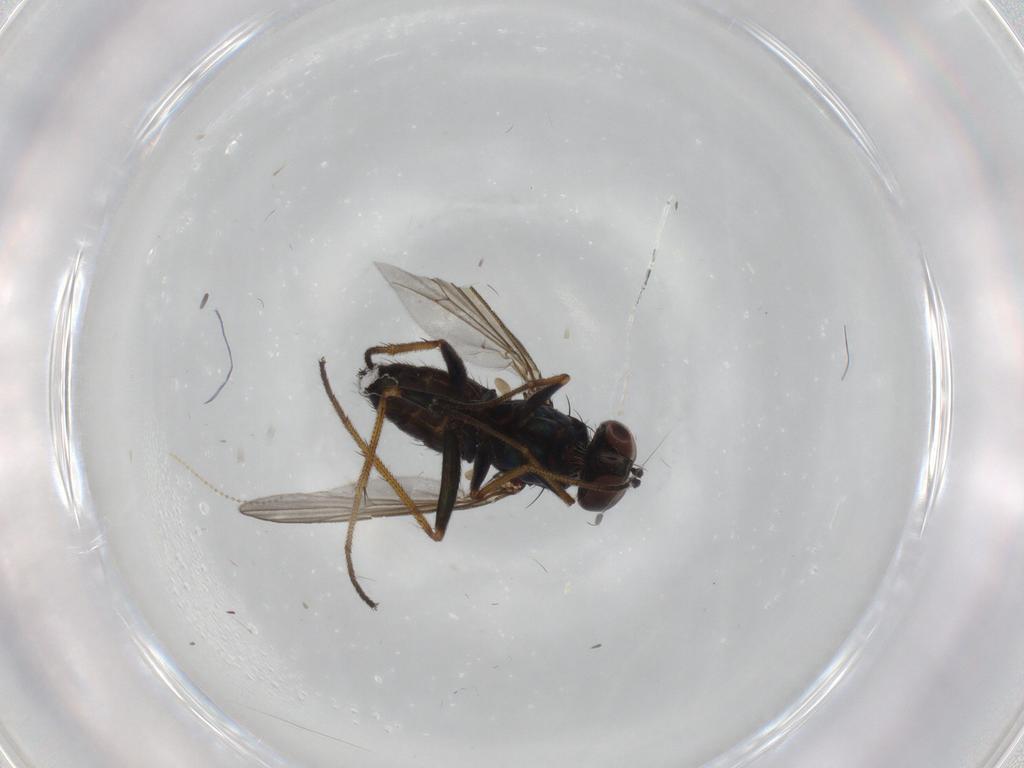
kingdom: Animalia
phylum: Arthropoda
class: Insecta
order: Diptera
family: Dolichopodidae
